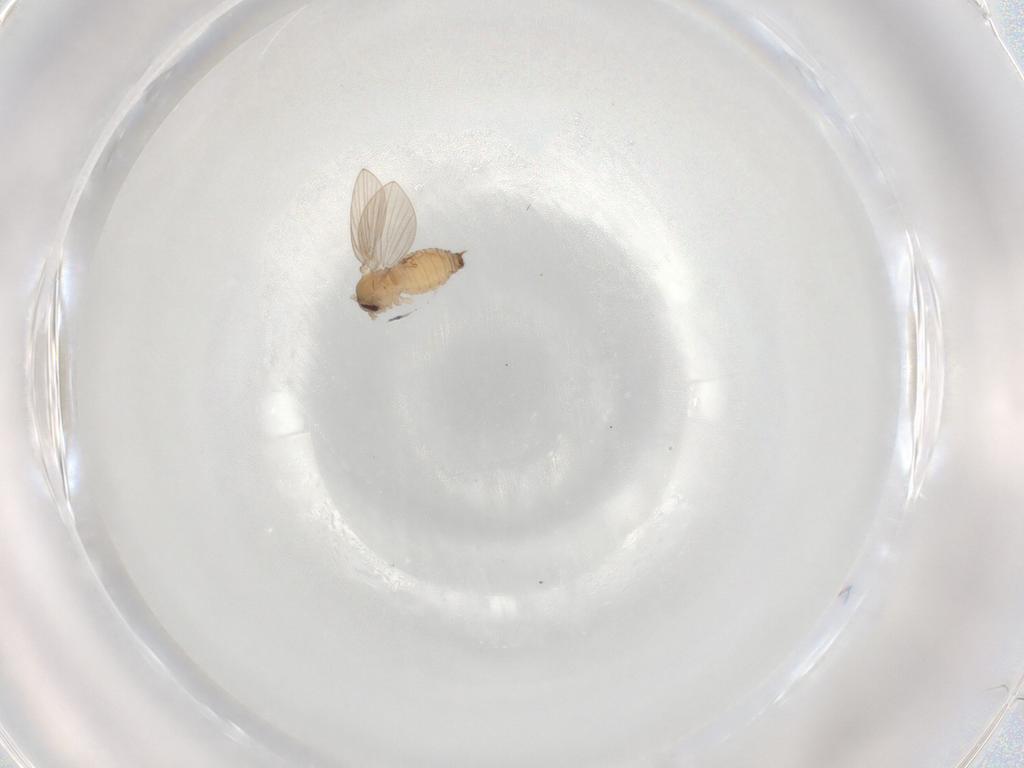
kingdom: Animalia
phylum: Arthropoda
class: Insecta
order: Diptera
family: Psychodidae
